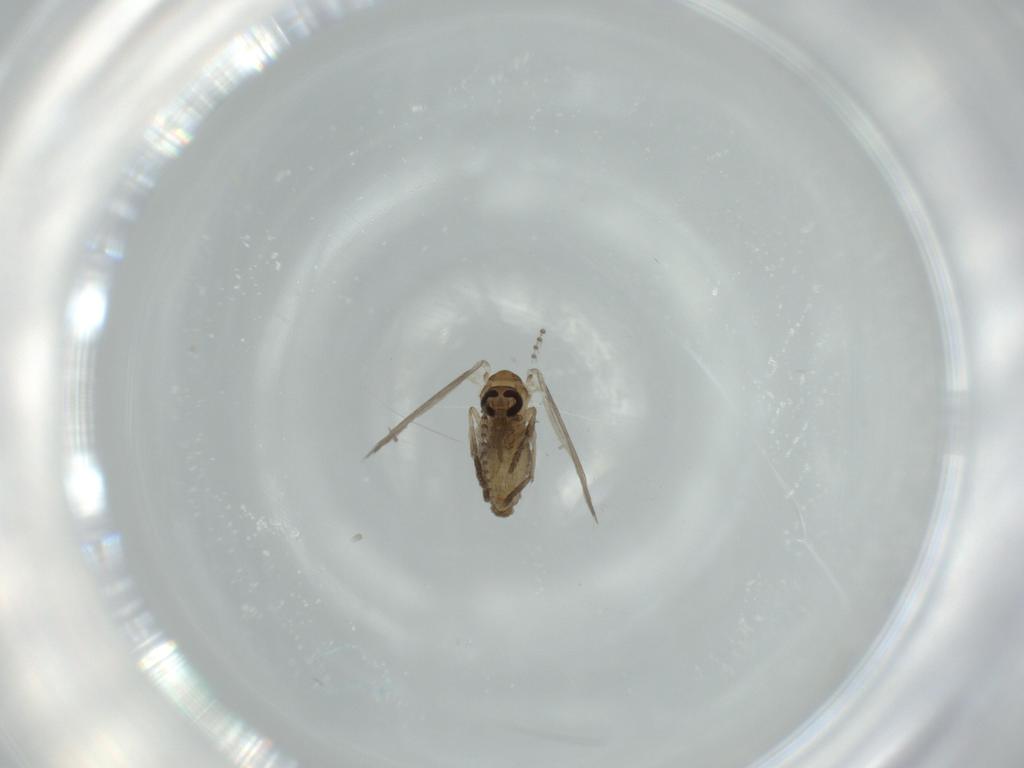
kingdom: Animalia
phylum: Arthropoda
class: Insecta
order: Diptera
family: Psychodidae
